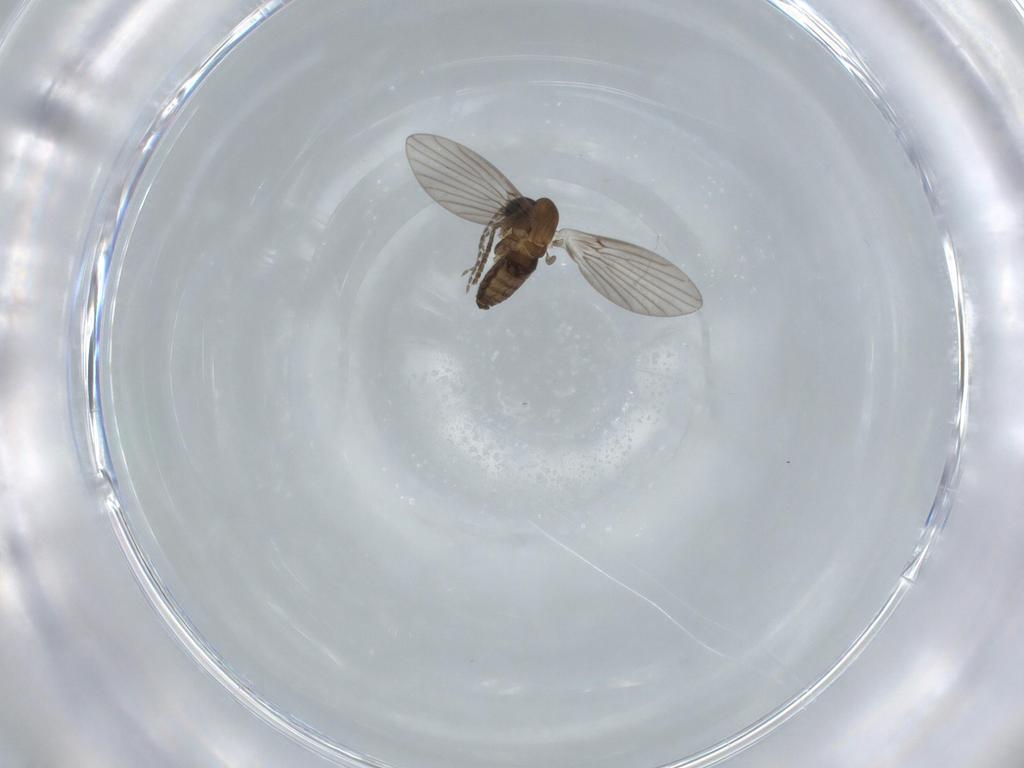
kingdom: Animalia
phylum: Arthropoda
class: Insecta
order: Diptera
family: Psychodidae
